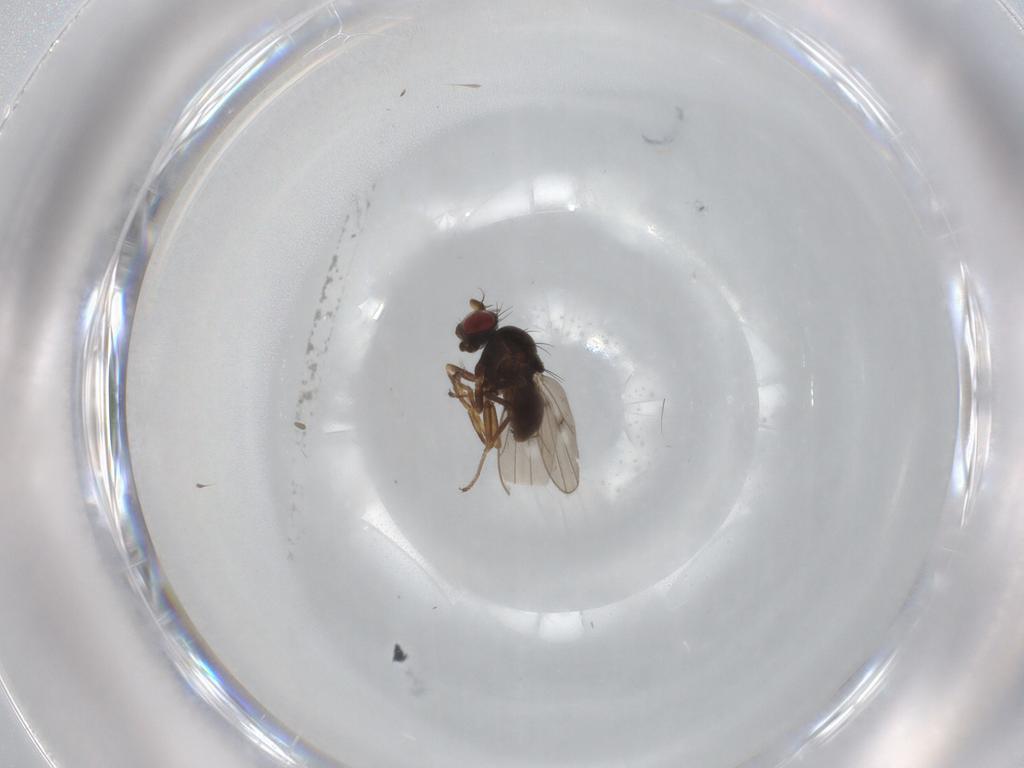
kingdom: Animalia
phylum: Arthropoda
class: Insecta
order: Diptera
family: Ephydridae
